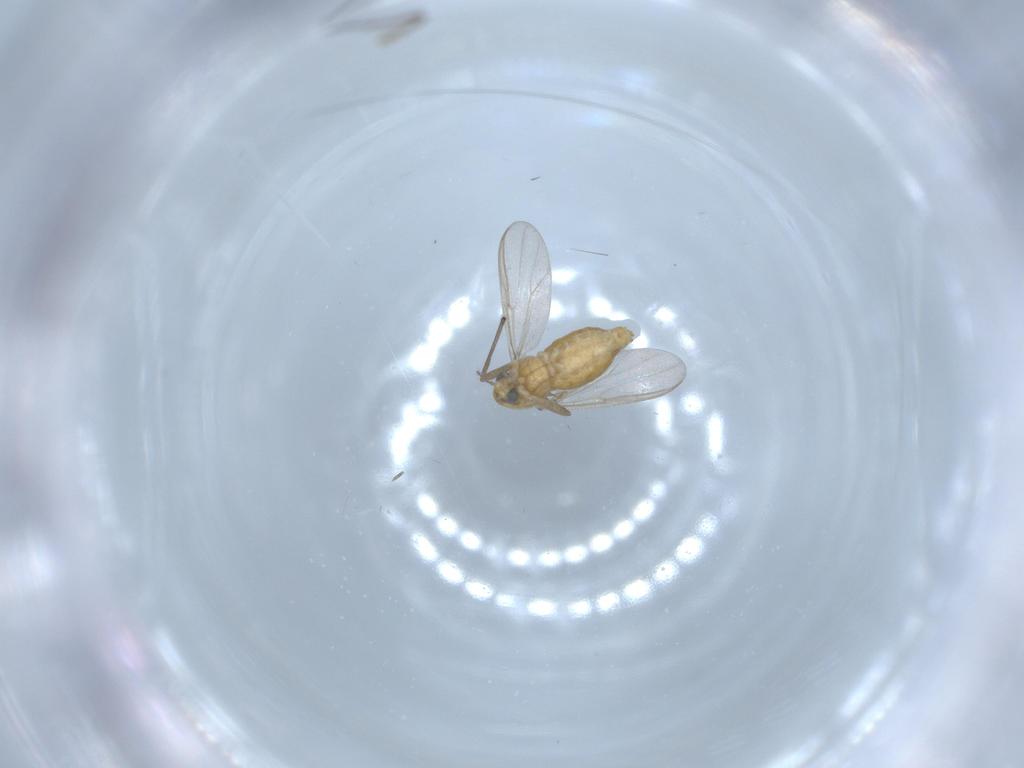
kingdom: Animalia
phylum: Arthropoda
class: Insecta
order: Diptera
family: Chironomidae
